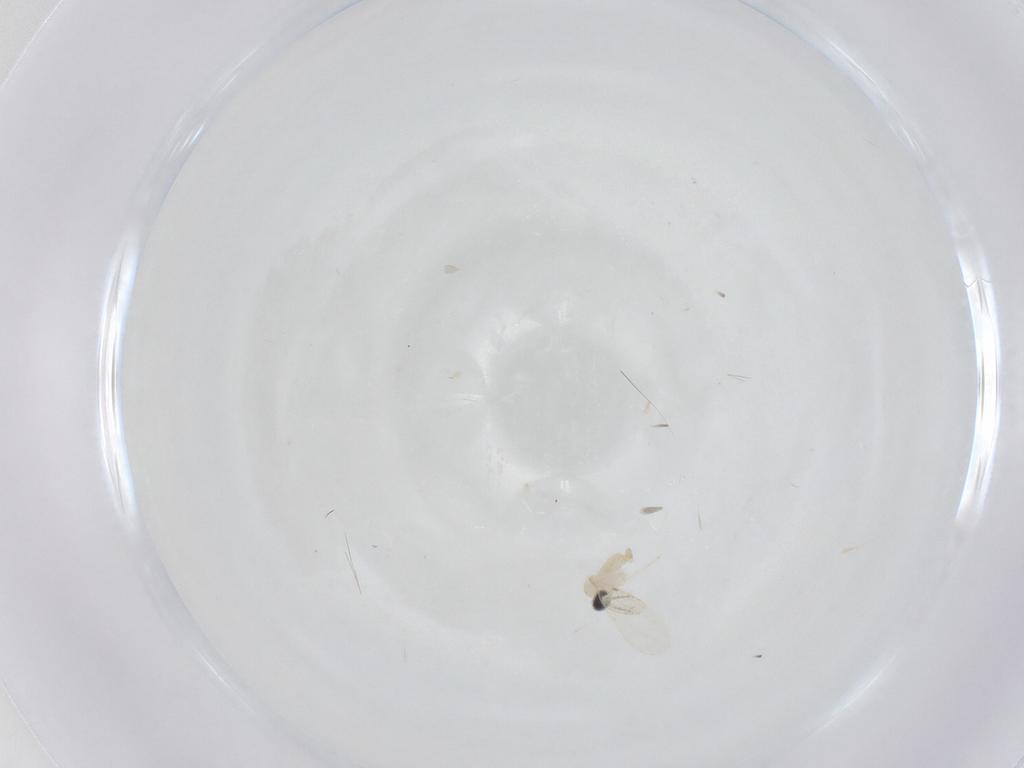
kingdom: Animalia
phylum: Arthropoda
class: Insecta
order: Diptera
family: Cecidomyiidae
